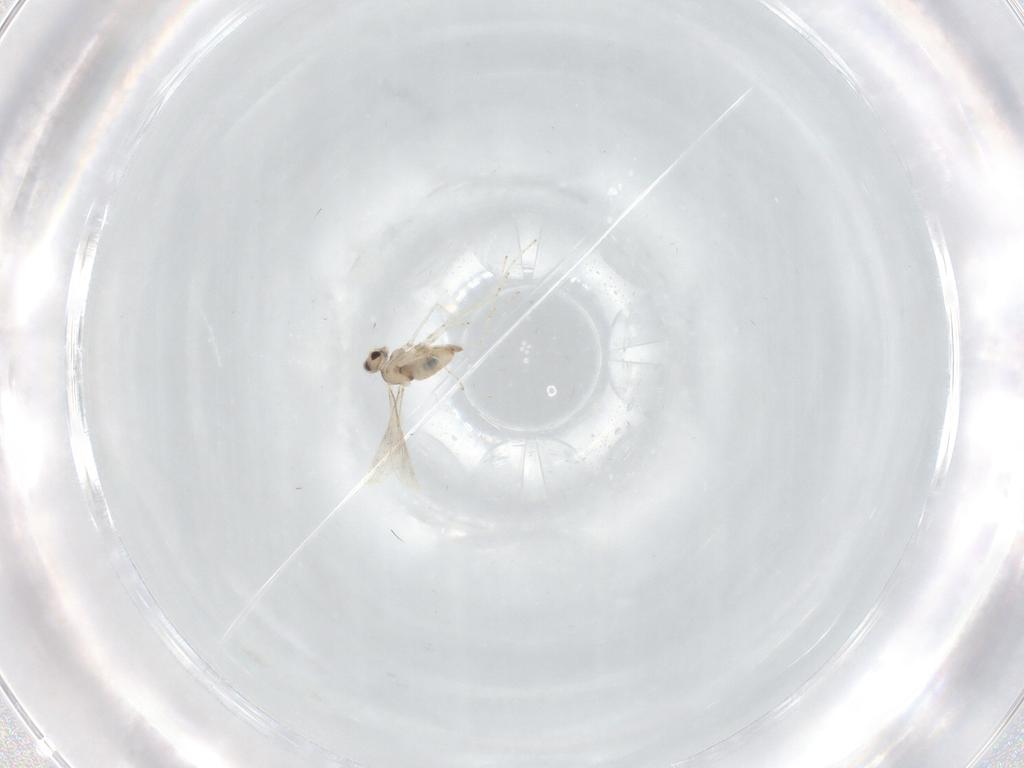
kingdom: Animalia
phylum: Arthropoda
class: Insecta
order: Diptera
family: Cecidomyiidae
